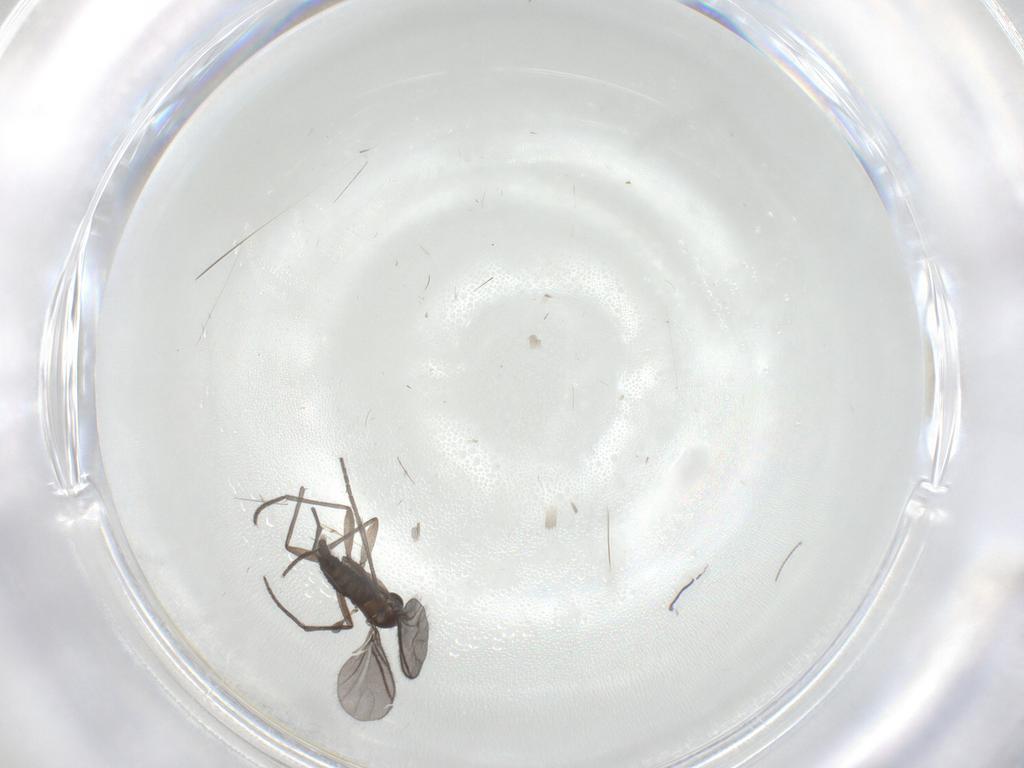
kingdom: Animalia
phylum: Arthropoda
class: Insecta
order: Diptera
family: Cecidomyiidae
